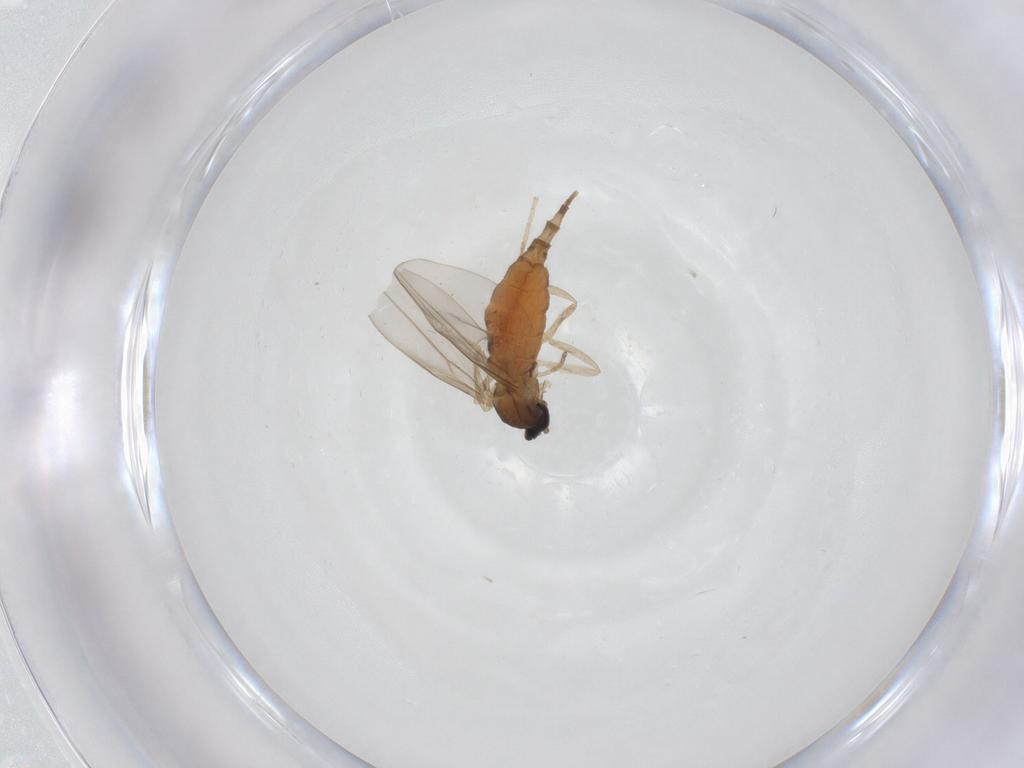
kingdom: Animalia
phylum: Arthropoda
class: Insecta
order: Diptera
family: Cecidomyiidae
